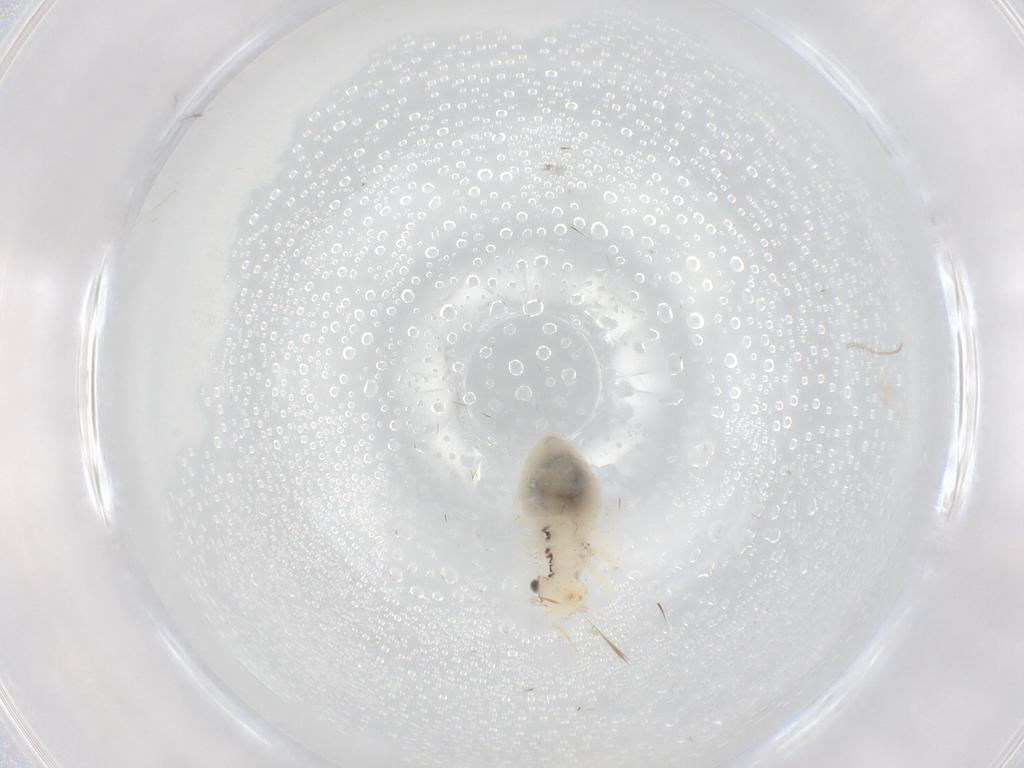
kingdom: Animalia
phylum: Arthropoda
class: Insecta
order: Psocodea
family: Caeciliusidae
